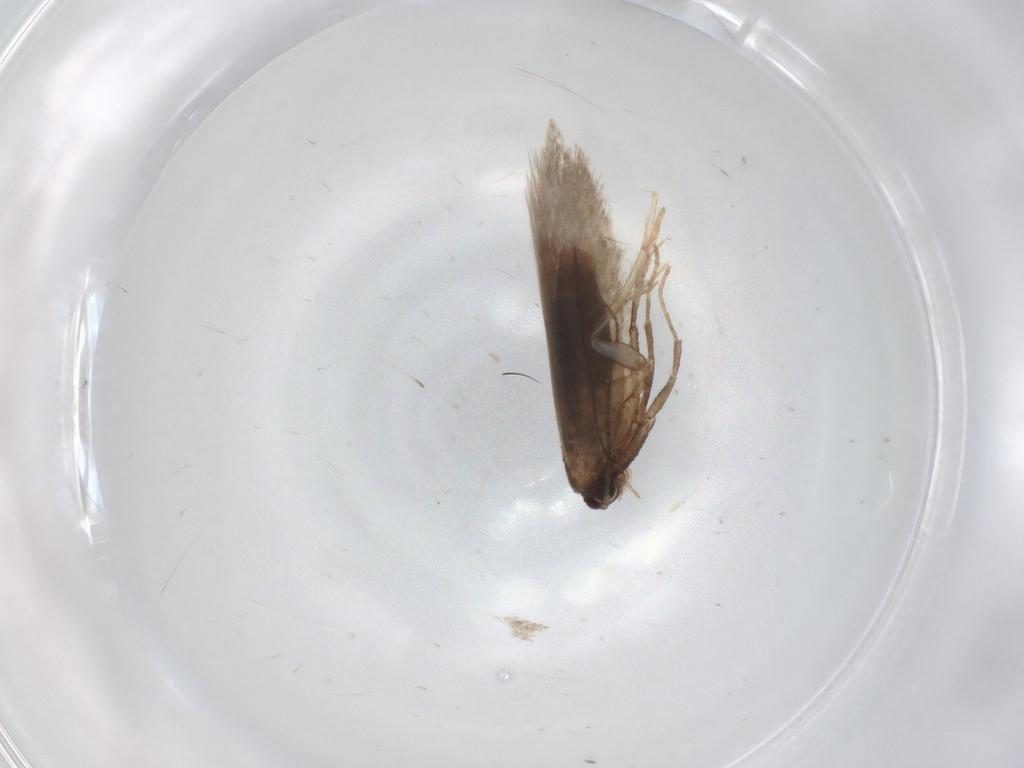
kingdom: Animalia
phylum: Arthropoda
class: Insecta
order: Lepidoptera
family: Nepticulidae
